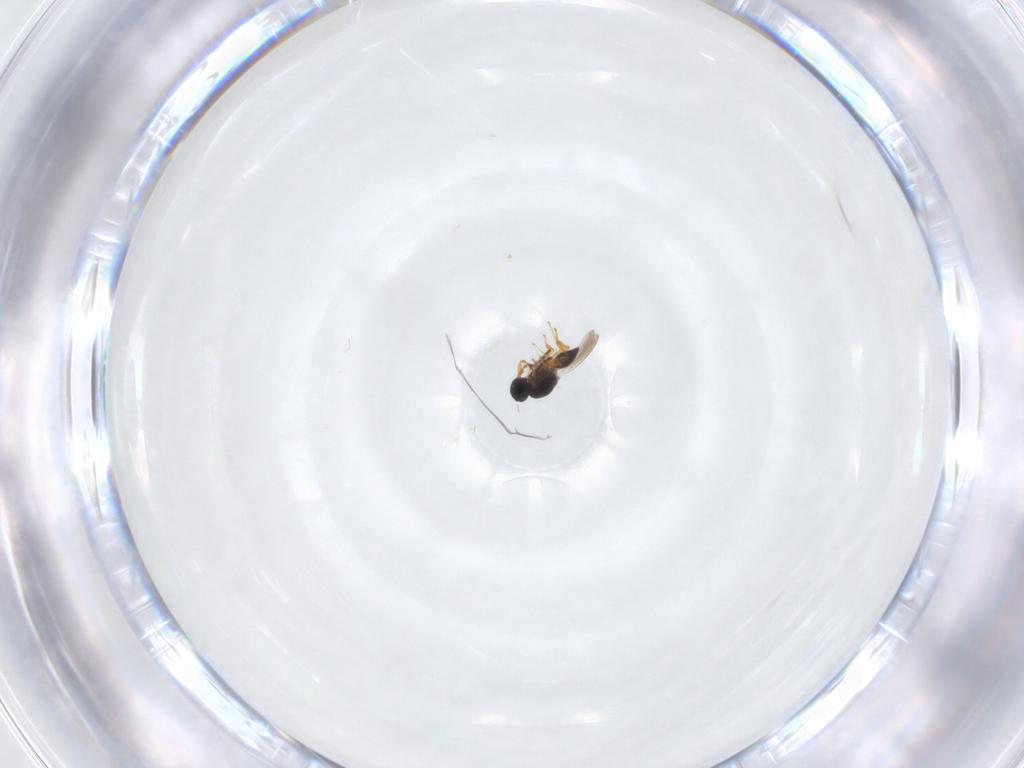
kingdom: Animalia
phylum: Arthropoda
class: Insecta
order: Hymenoptera
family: Platygastridae
